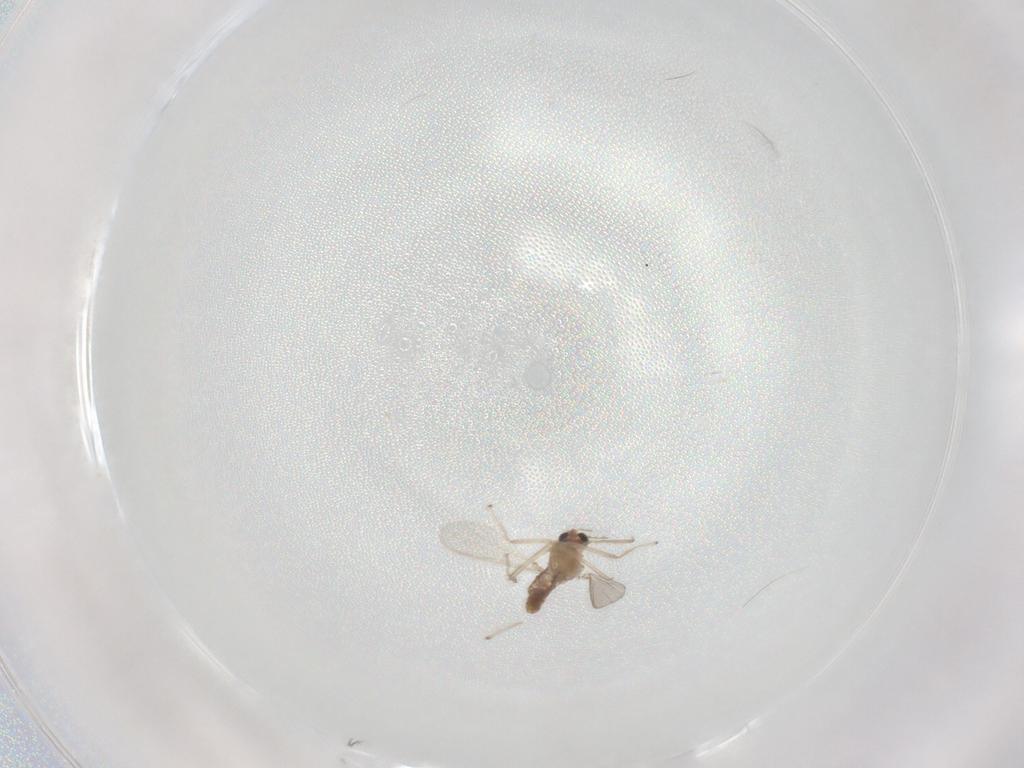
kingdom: Animalia
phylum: Arthropoda
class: Insecta
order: Diptera
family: Chironomidae
